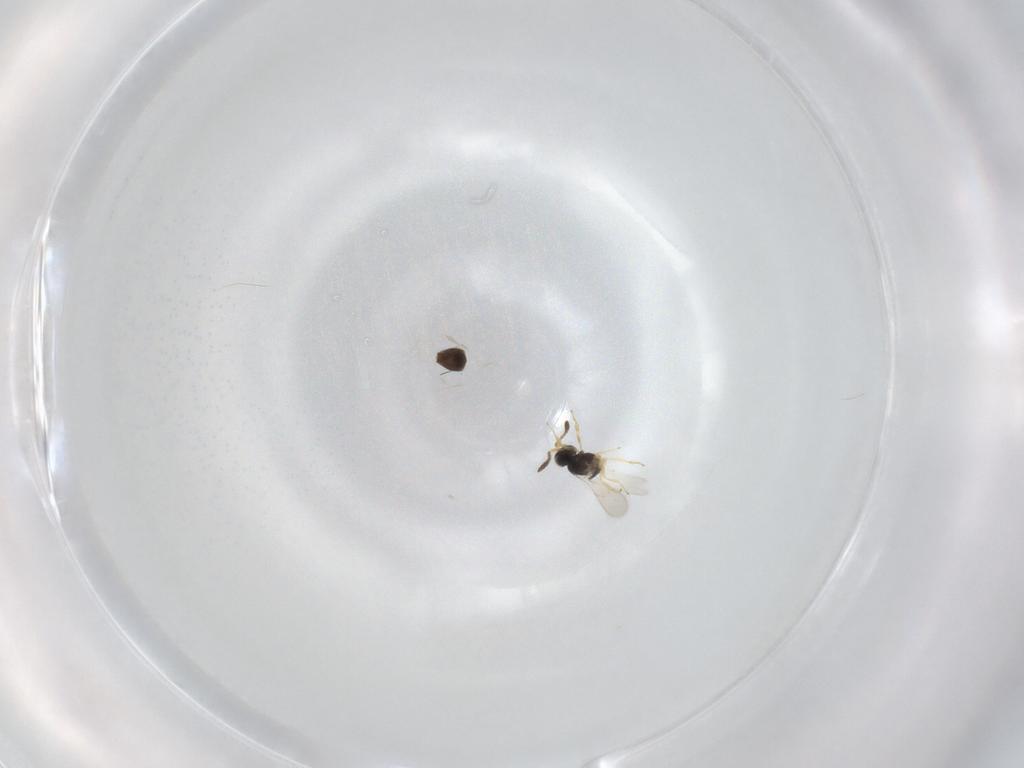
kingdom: Animalia
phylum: Arthropoda
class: Insecta
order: Hymenoptera
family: Scelionidae
